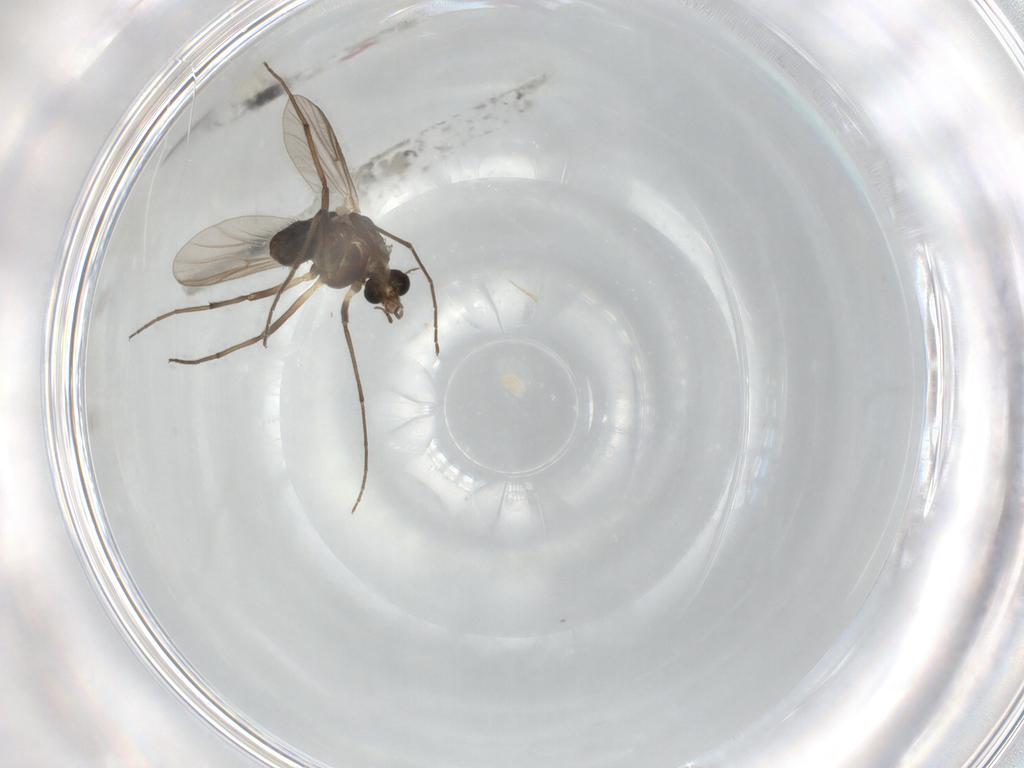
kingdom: Animalia
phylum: Arthropoda
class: Insecta
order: Diptera
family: Chironomidae
